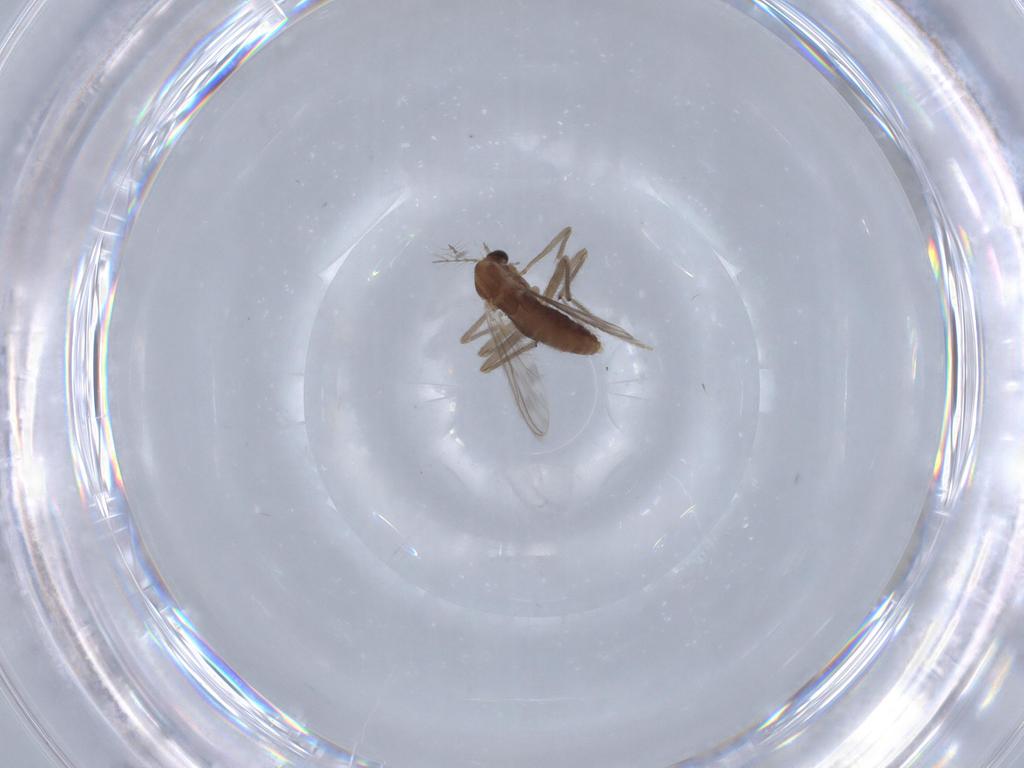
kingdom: Animalia
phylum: Arthropoda
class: Insecta
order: Diptera
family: Chironomidae
